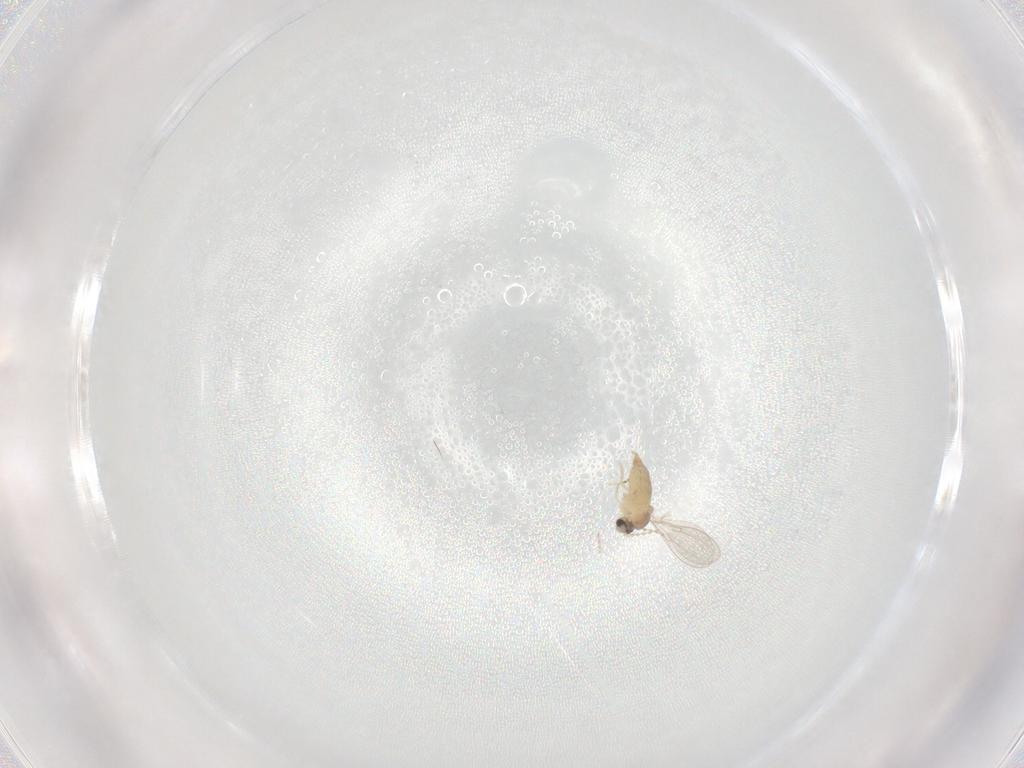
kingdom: Animalia
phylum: Arthropoda
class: Insecta
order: Diptera
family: Cecidomyiidae
